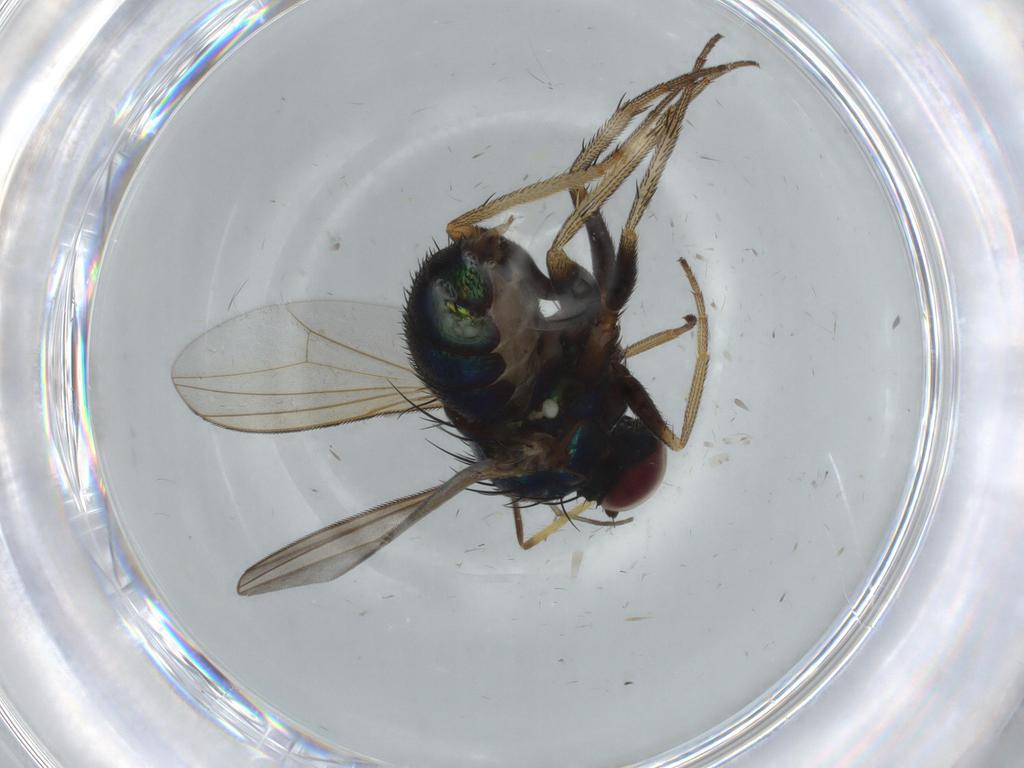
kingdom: Animalia
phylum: Arthropoda
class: Insecta
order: Diptera
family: Dolichopodidae
